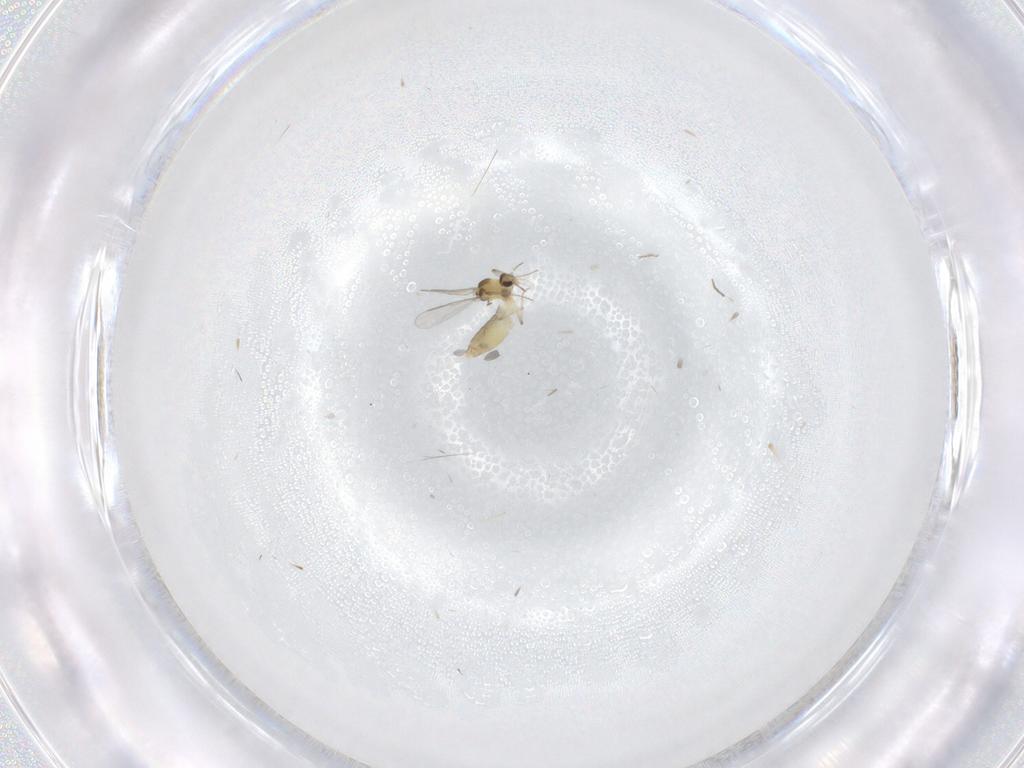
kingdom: Animalia
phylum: Arthropoda
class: Insecta
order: Diptera
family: Chironomidae
